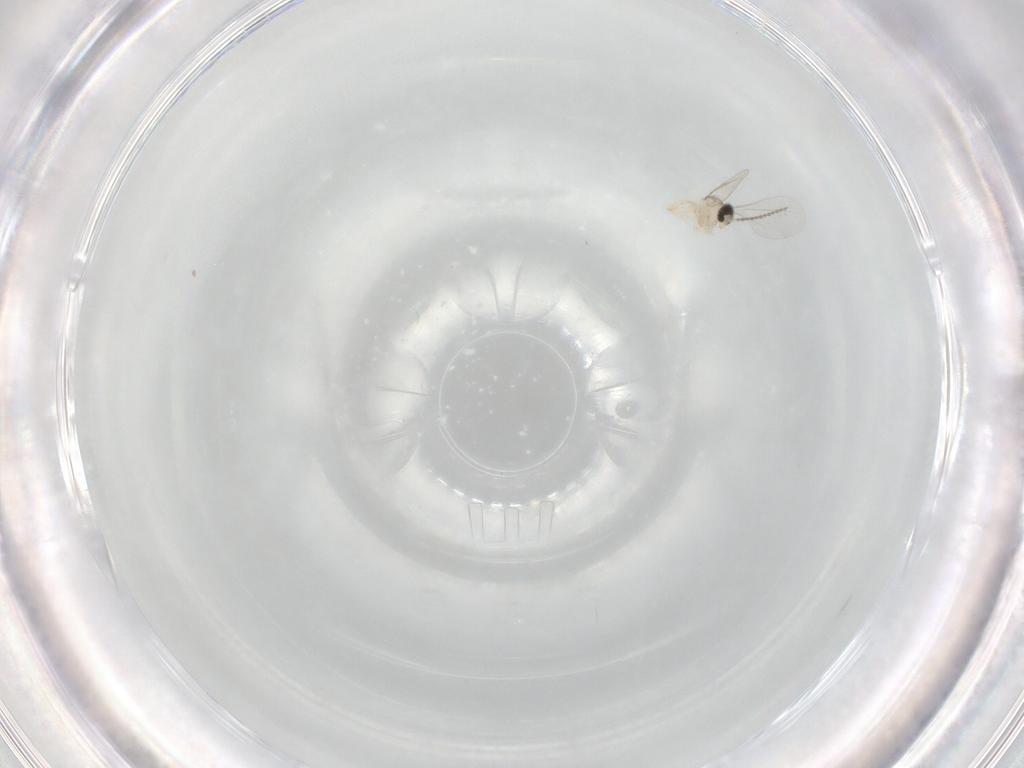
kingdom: Animalia
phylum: Arthropoda
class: Insecta
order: Diptera
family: Cecidomyiidae
